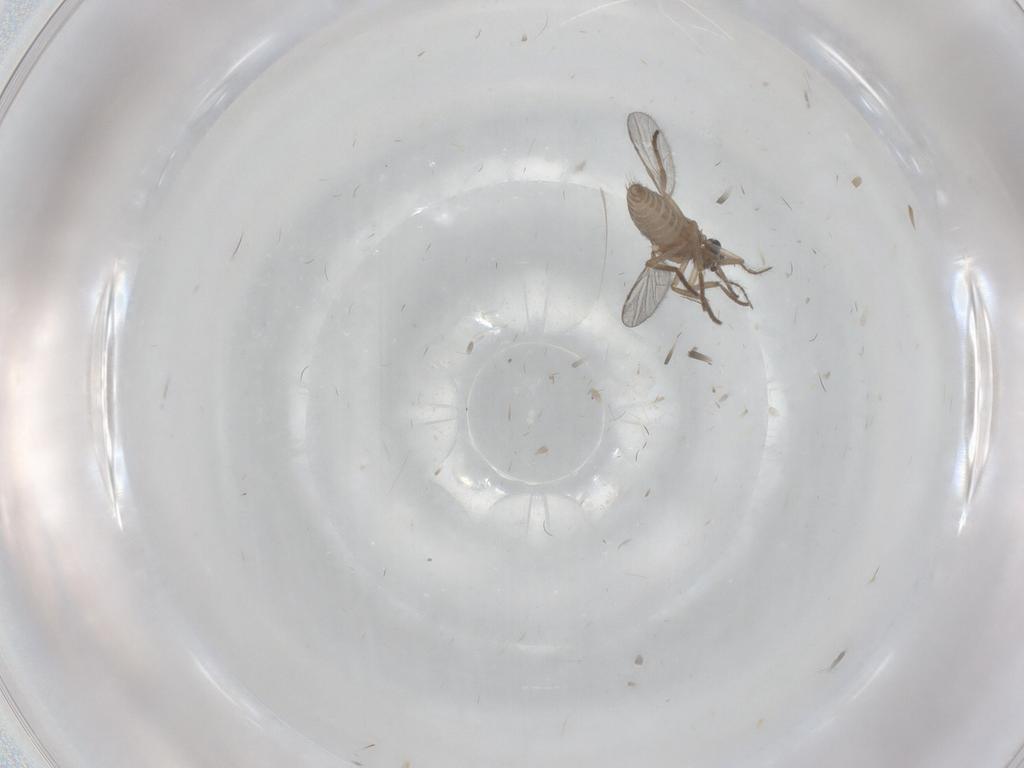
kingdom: Animalia
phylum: Arthropoda
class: Insecta
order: Diptera
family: Ceratopogonidae
